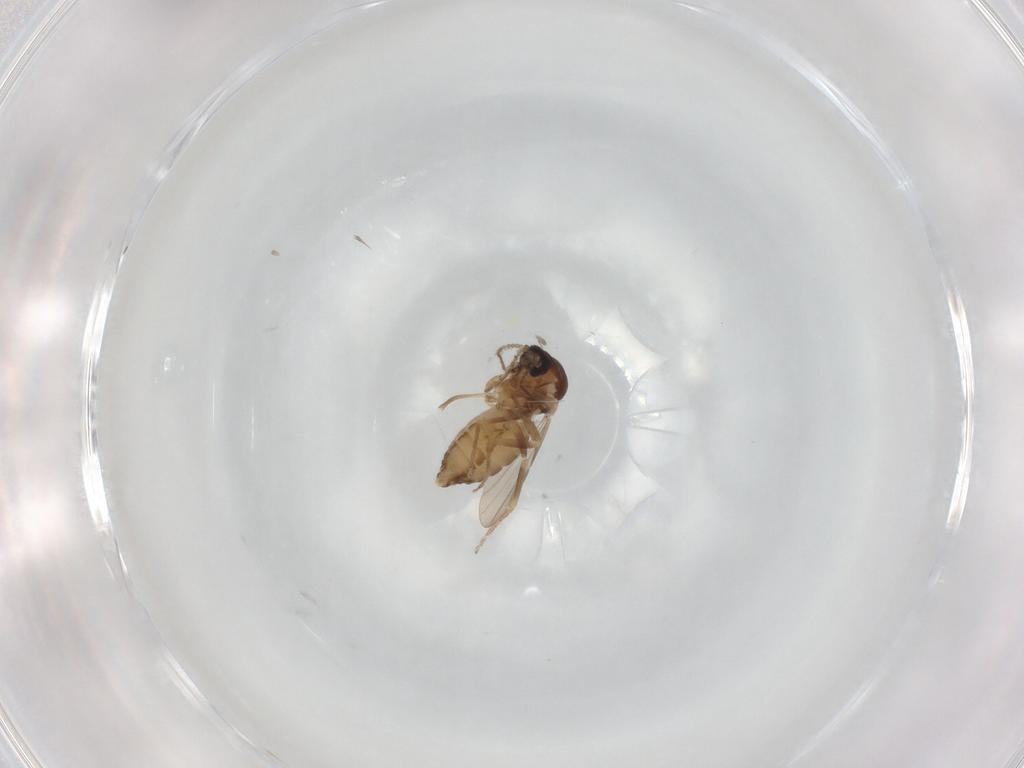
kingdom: Animalia
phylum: Arthropoda
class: Insecta
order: Diptera
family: Ceratopogonidae
